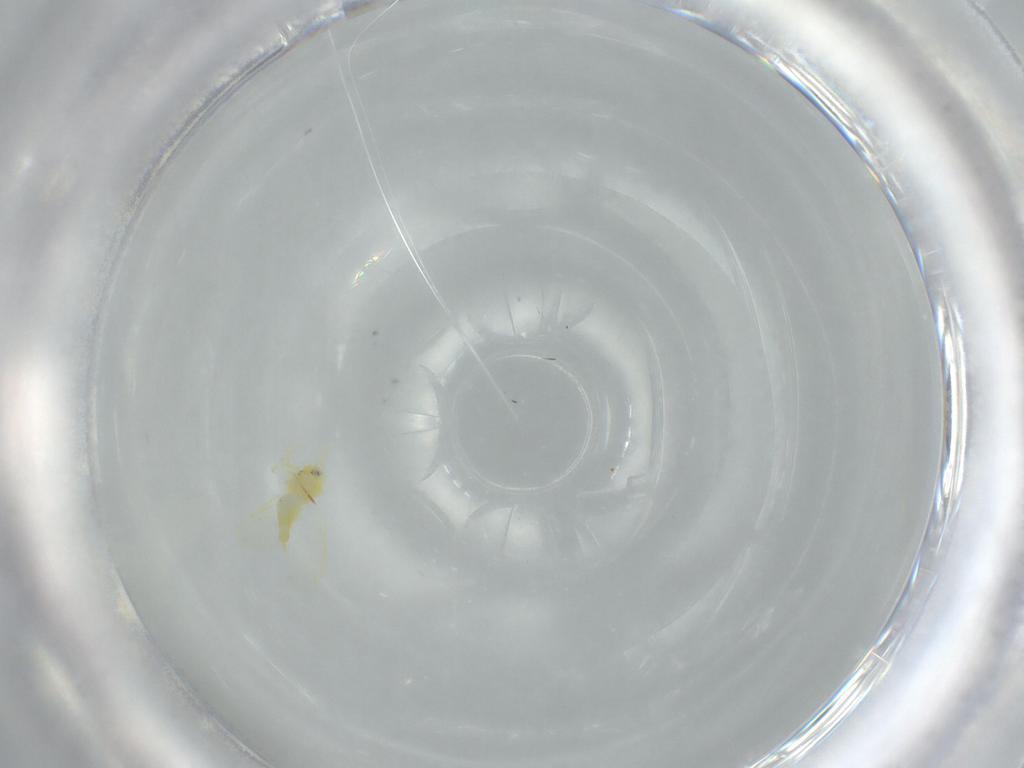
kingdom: Animalia
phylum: Arthropoda
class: Insecta
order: Hemiptera
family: Aleyrodidae
